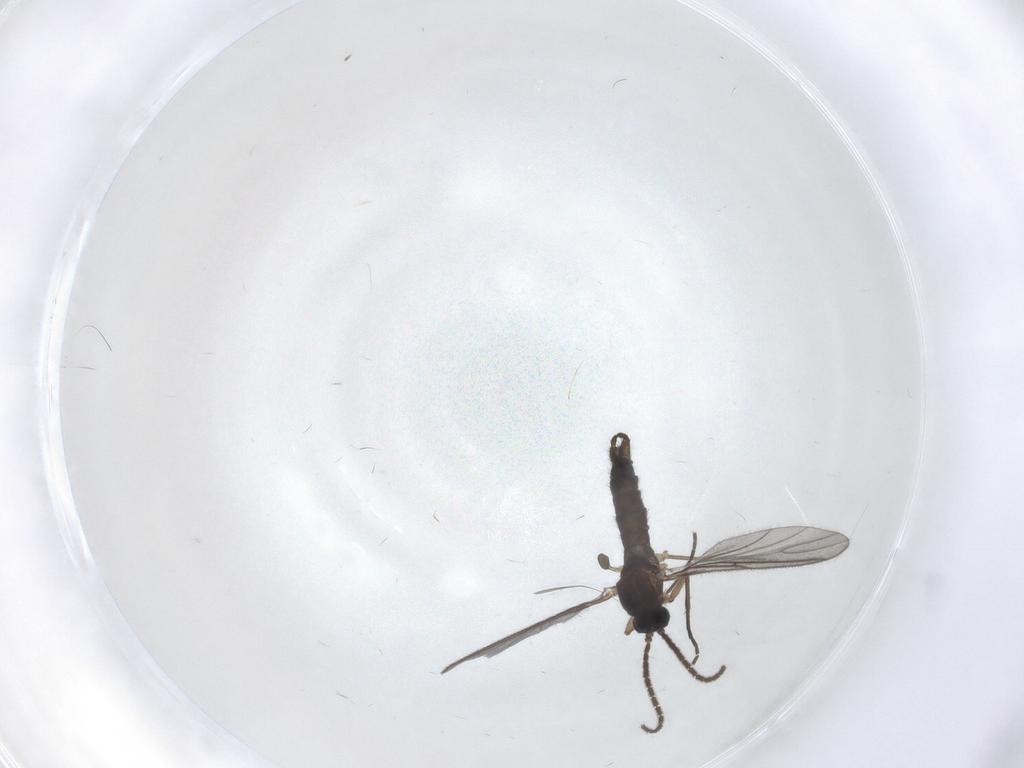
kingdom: Animalia
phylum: Arthropoda
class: Insecta
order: Diptera
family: Sciaridae
